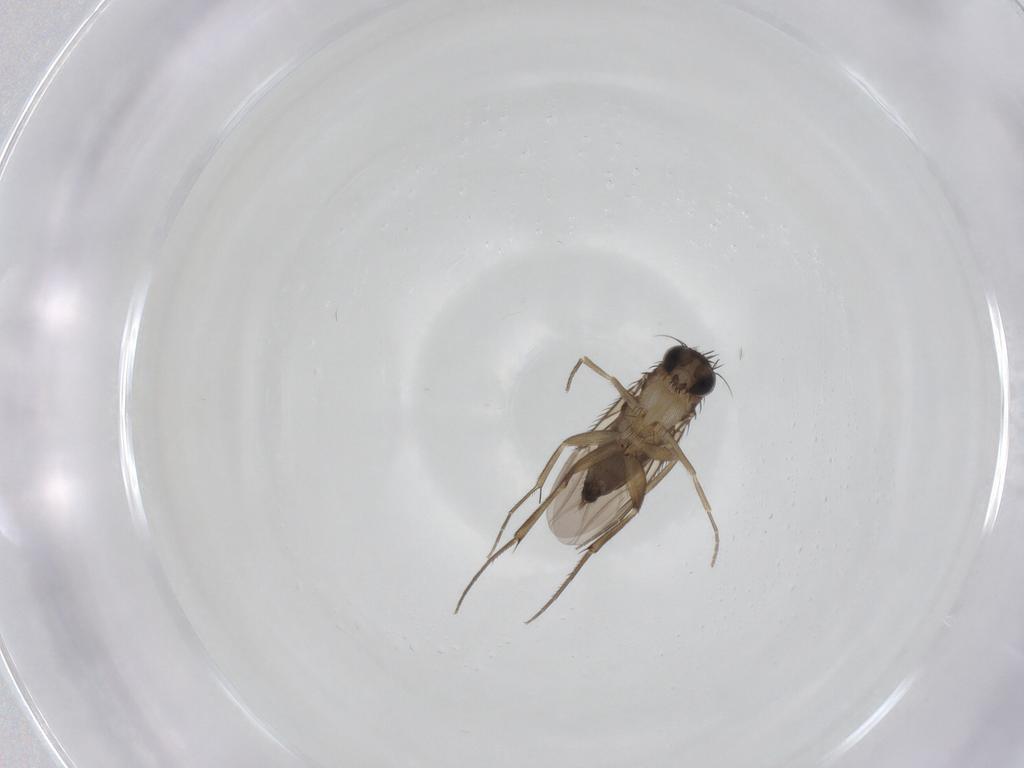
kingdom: Animalia
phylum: Arthropoda
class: Insecta
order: Diptera
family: Phoridae
